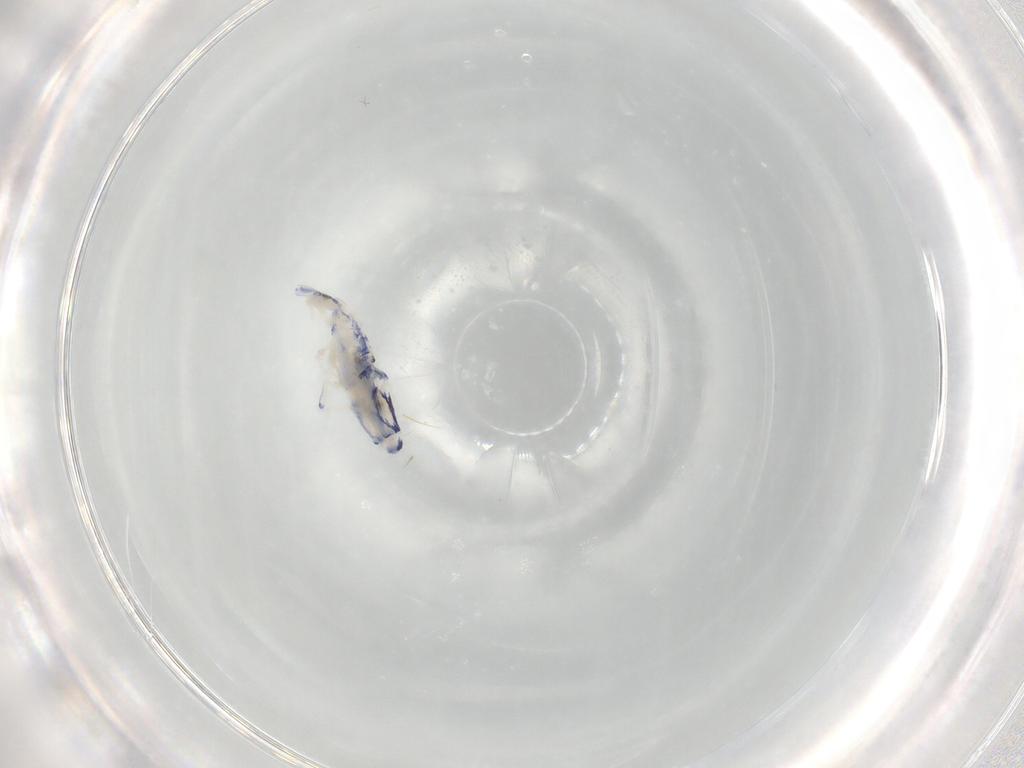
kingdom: Animalia
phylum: Arthropoda
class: Collembola
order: Entomobryomorpha
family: Entomobryidae
